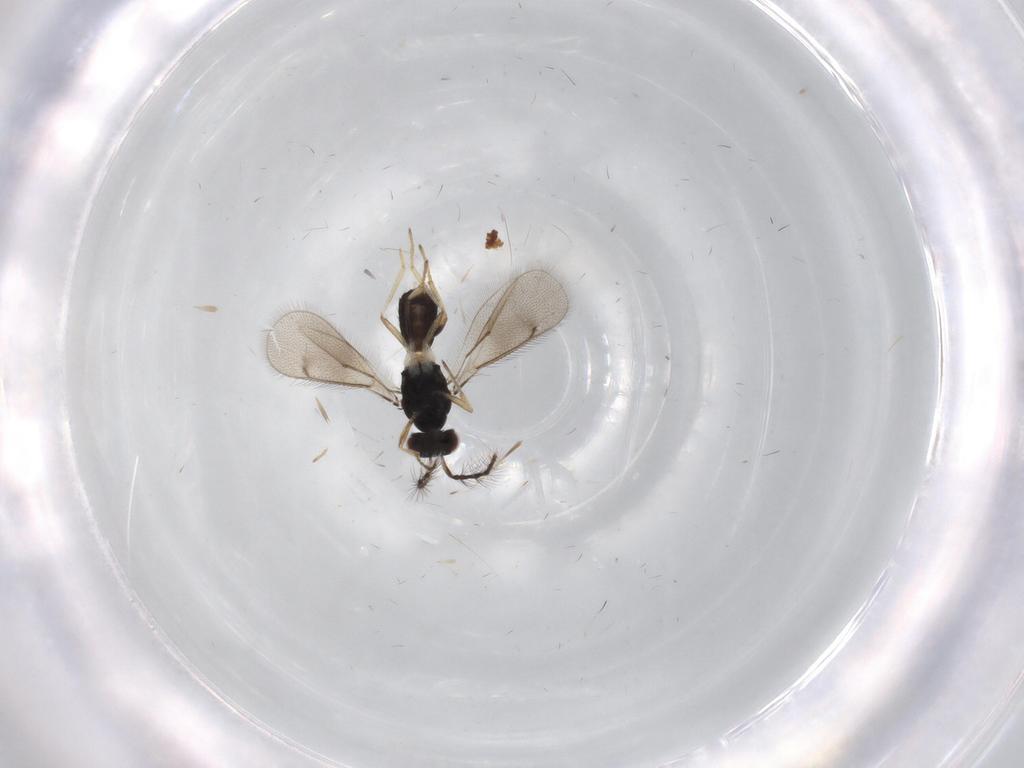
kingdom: Animalia
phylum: Arthropoda
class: Insecta
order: Hymenoptera
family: Eulophidae
